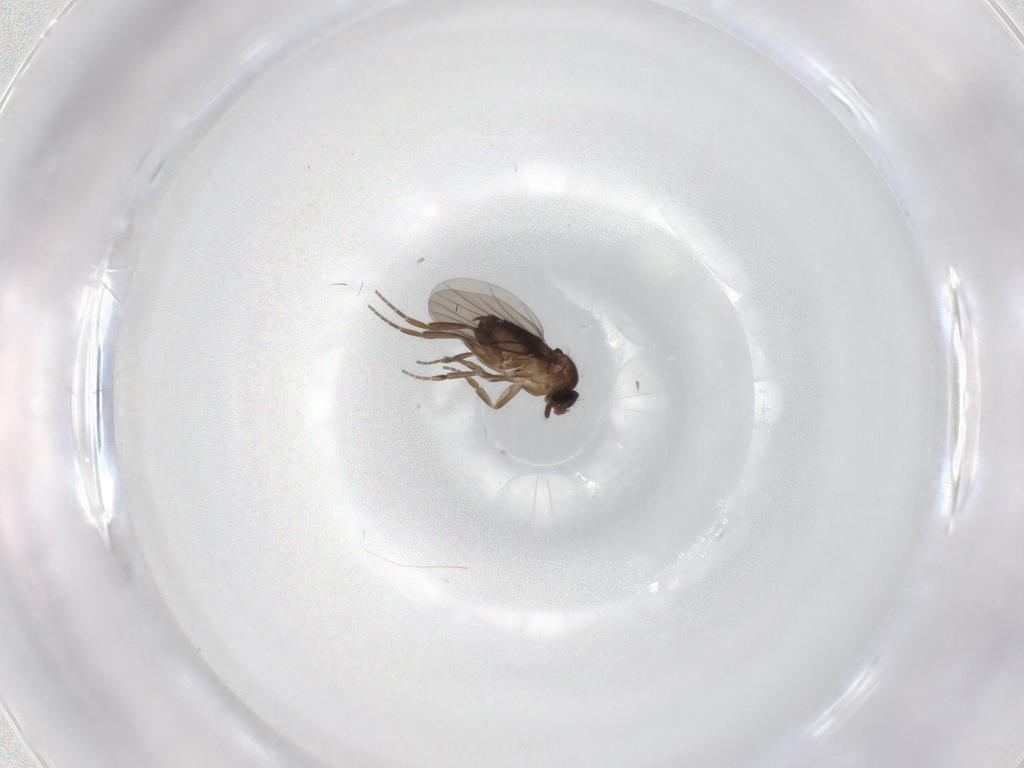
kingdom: Animalia
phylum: Arthropoda
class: Insecta
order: Diptera
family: Phoridae
